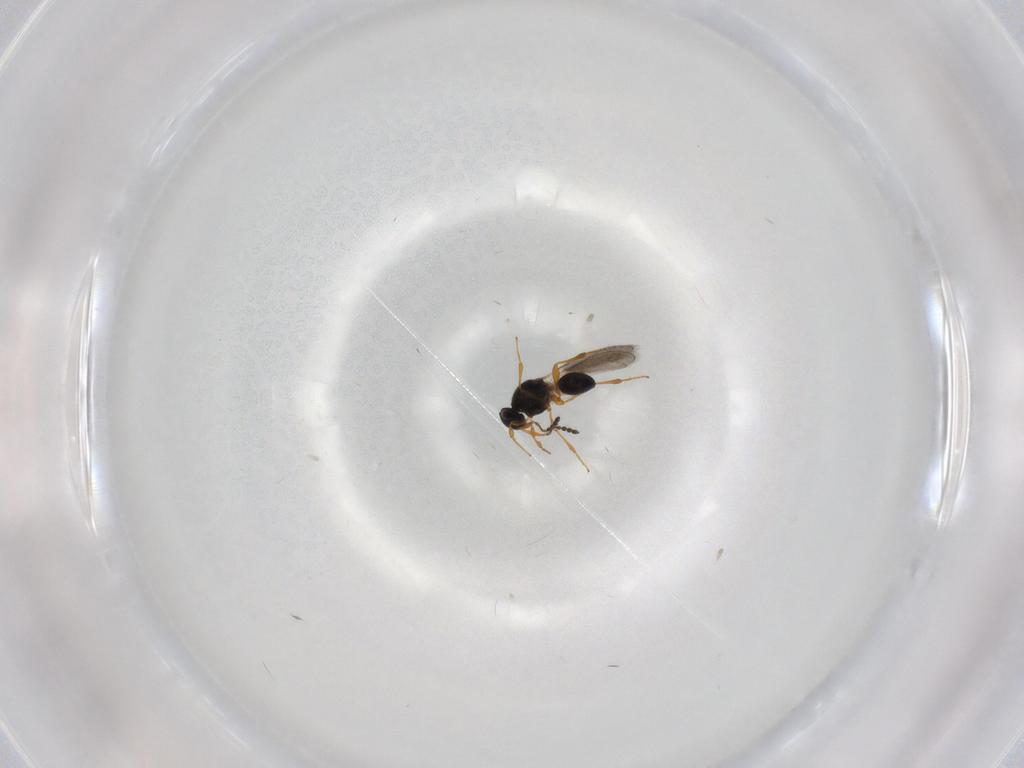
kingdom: Animalia
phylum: Arthropoda
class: Insecta
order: Hymenoptera
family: Platygastridae
